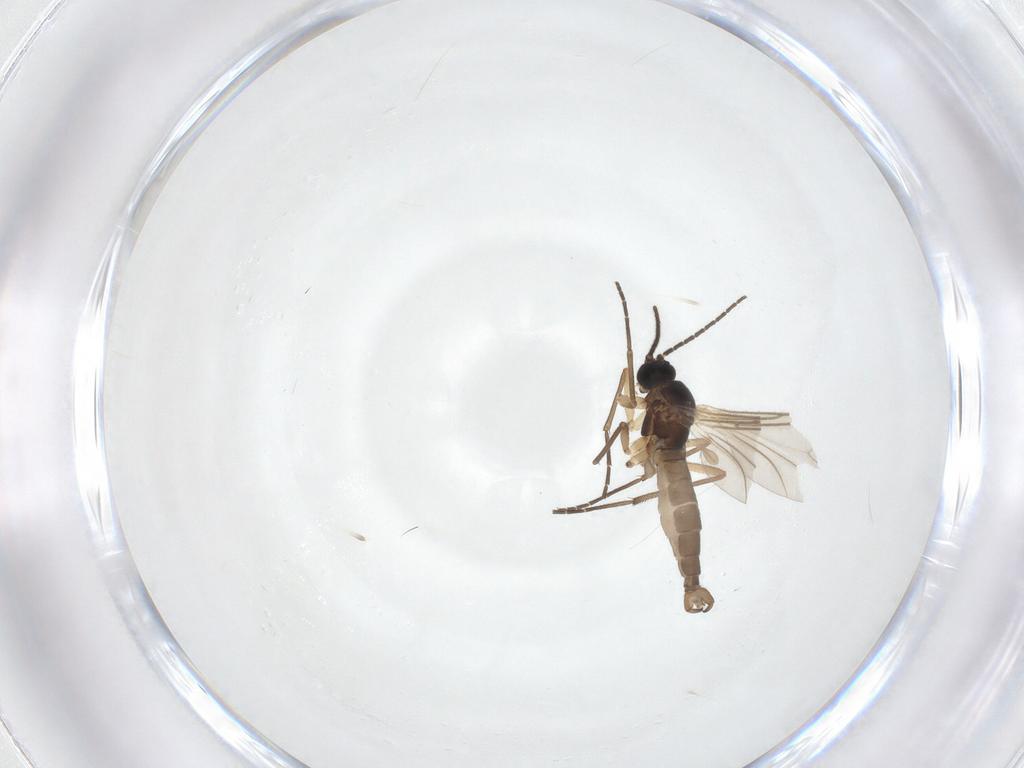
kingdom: Animalia
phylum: Arthropoda
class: Insecta
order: Diptera
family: Sciaridae
